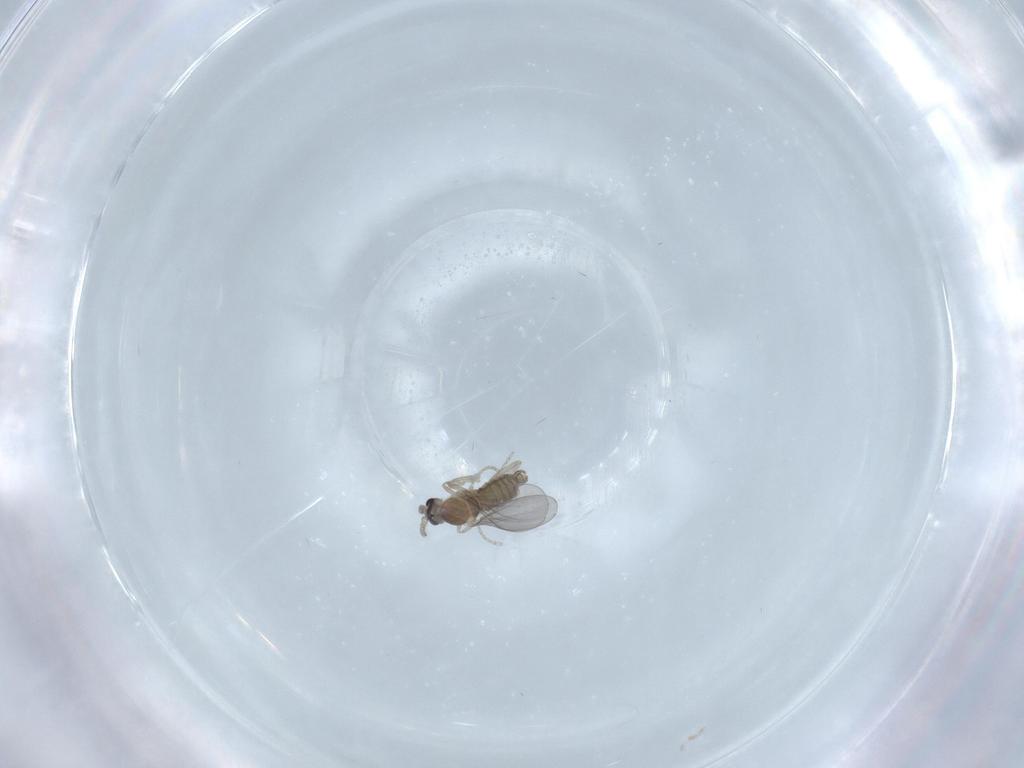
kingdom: Animalia
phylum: Arthropoda
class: Insecta
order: Diptera
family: Cecidomyiidae
